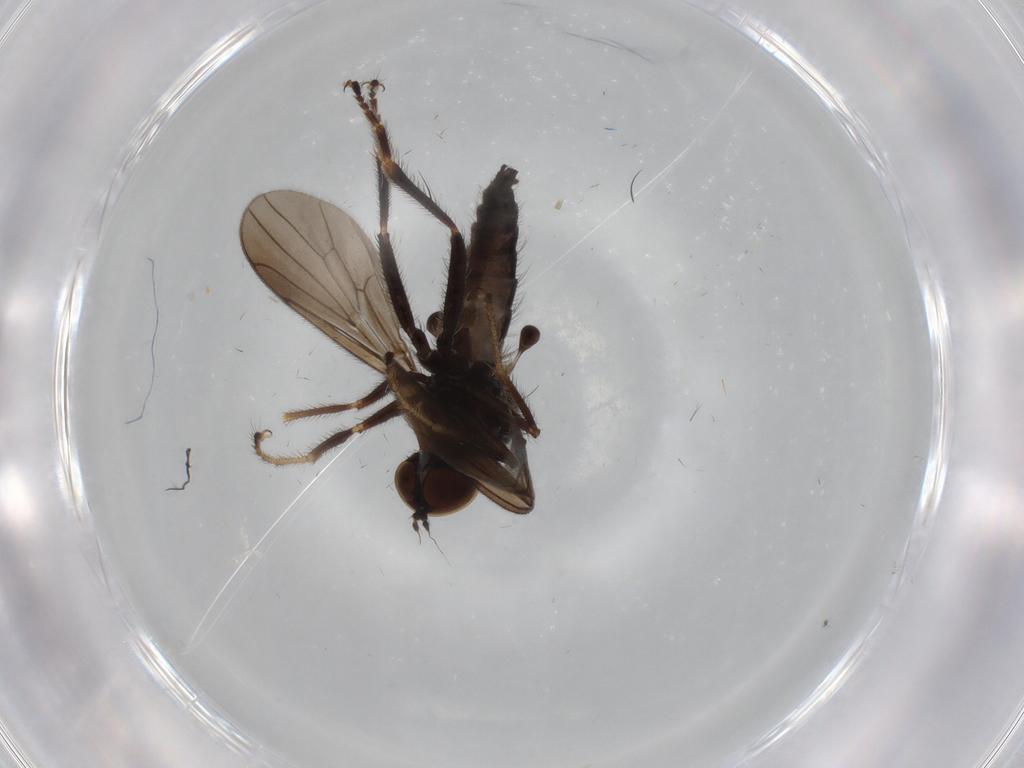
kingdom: Animalia
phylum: Arthropoda
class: Insecta
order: Diptera
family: Hybotidae
